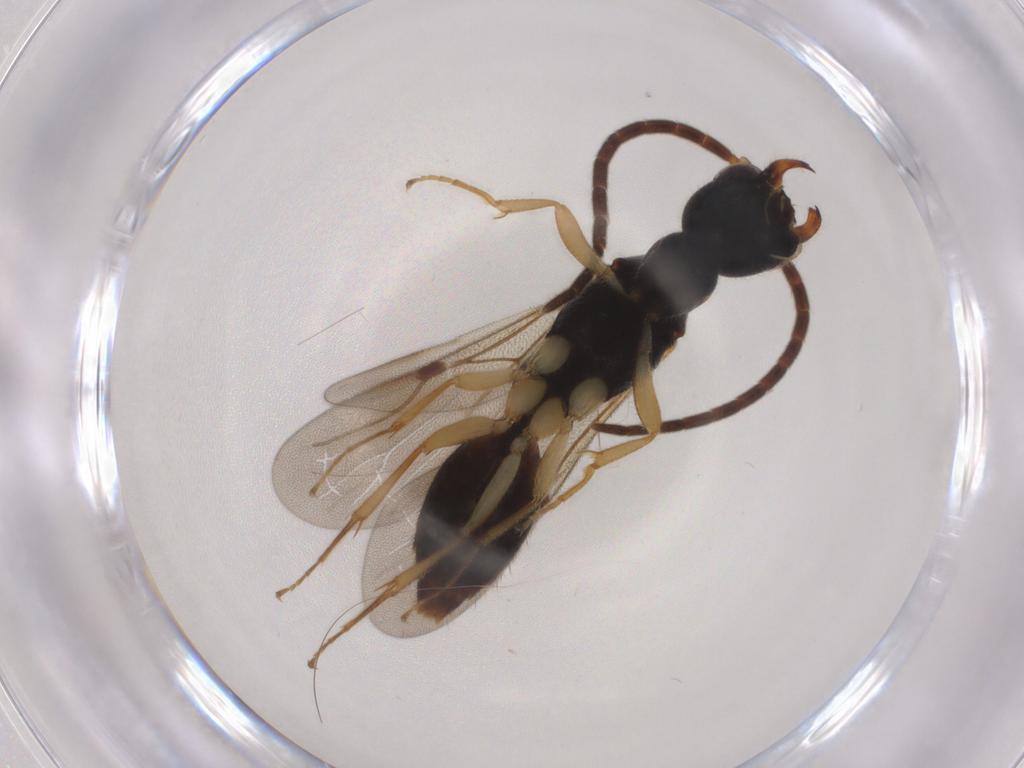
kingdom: Animalia
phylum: Arthropoda
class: Insecta
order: Hymenoptera
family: Bethylidae
